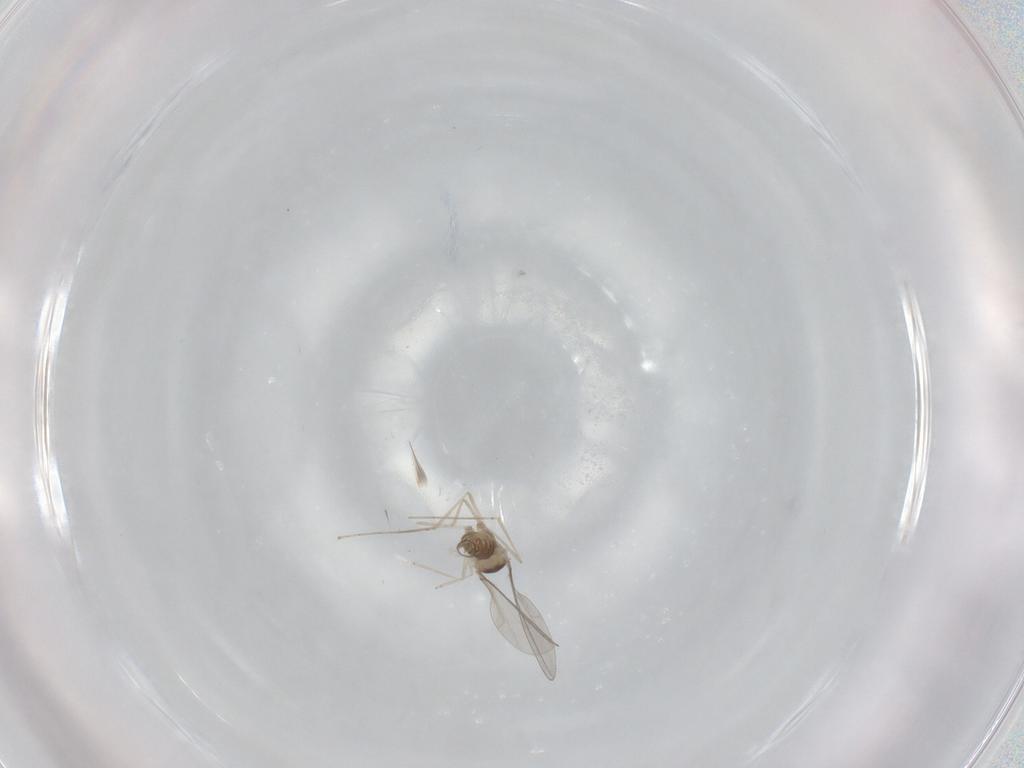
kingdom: Animalia
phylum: Arthropoda
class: Insecta
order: Diptera
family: Cecidomyiidae
